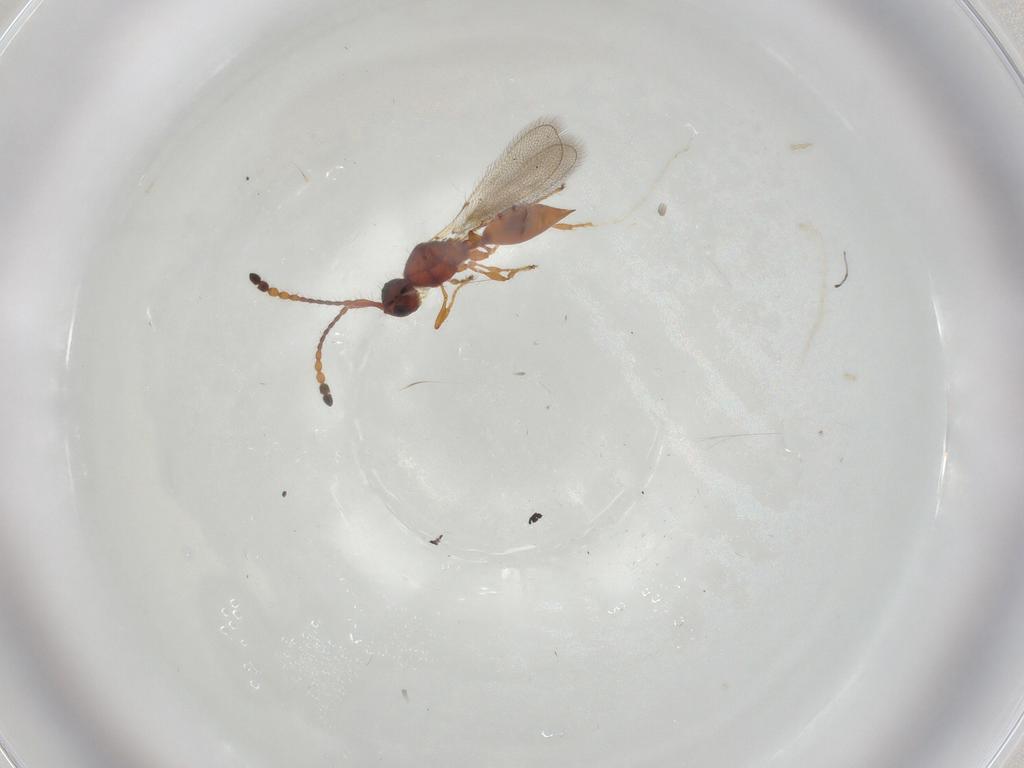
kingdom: Animalia
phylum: Arthropoda
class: Insecta
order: Hymenoptera
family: Diapriidae
